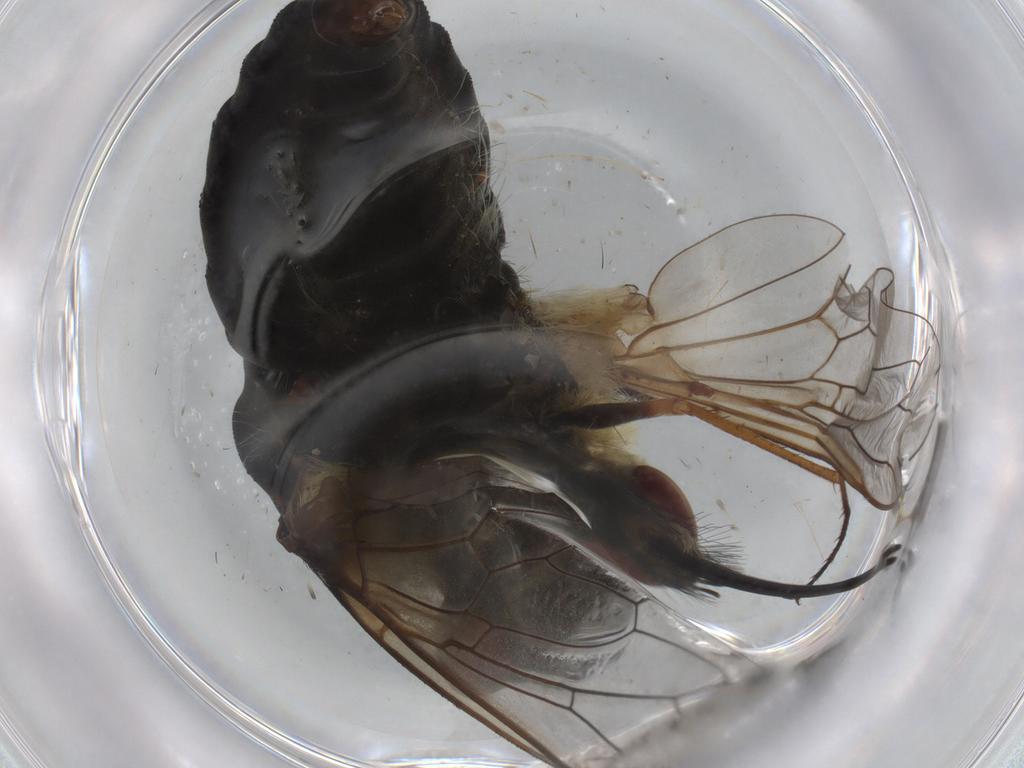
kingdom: Animalia
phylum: Arthropoda
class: Insecta
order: Diptera
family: Bombyliidae
